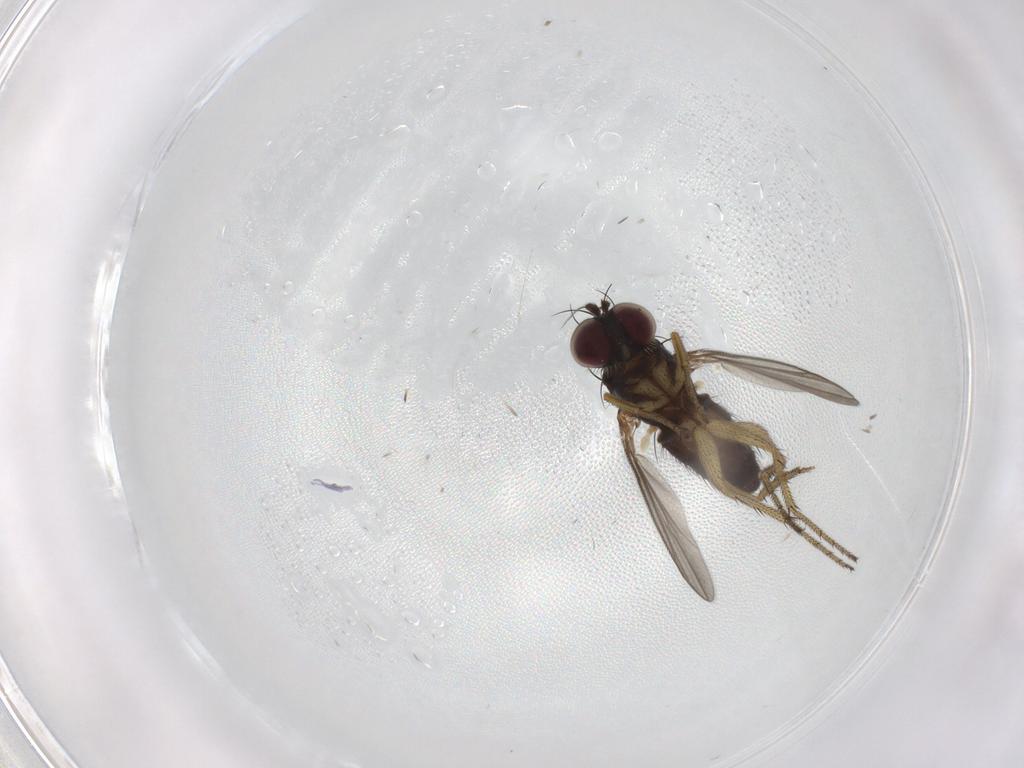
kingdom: Animalia
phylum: Arthropoda
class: Insecta
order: Diptera
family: Dolichopodidae
